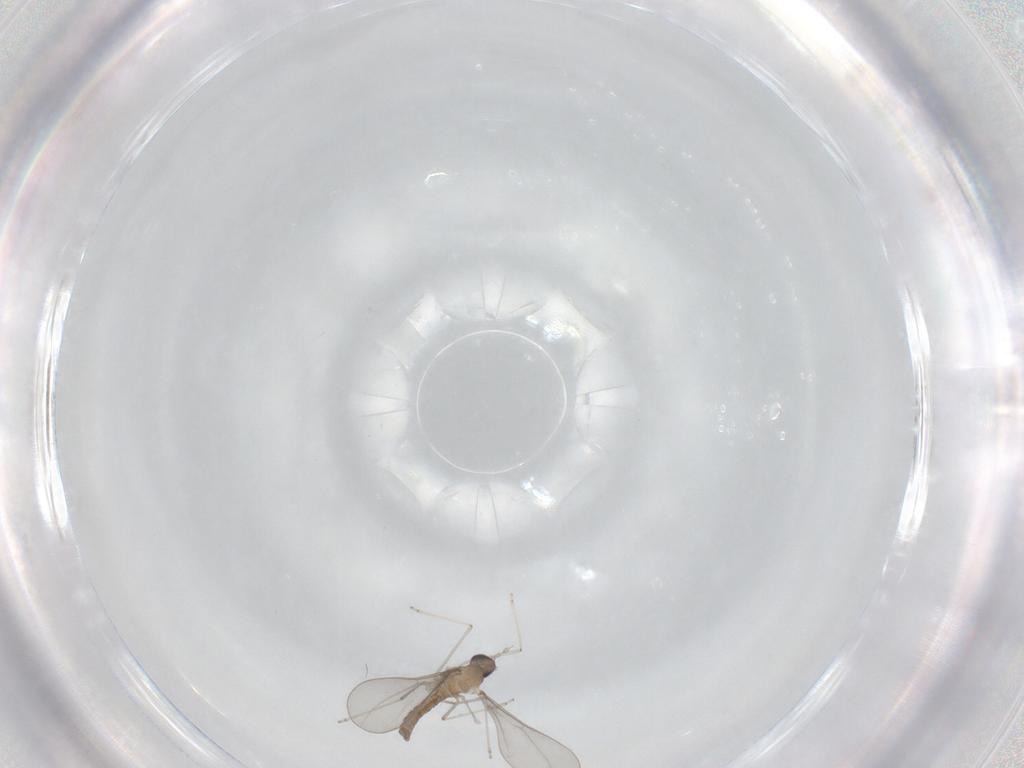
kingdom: Animalia
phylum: Arthropoda
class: Insecta
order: Diptera
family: Cecidomyiidae
